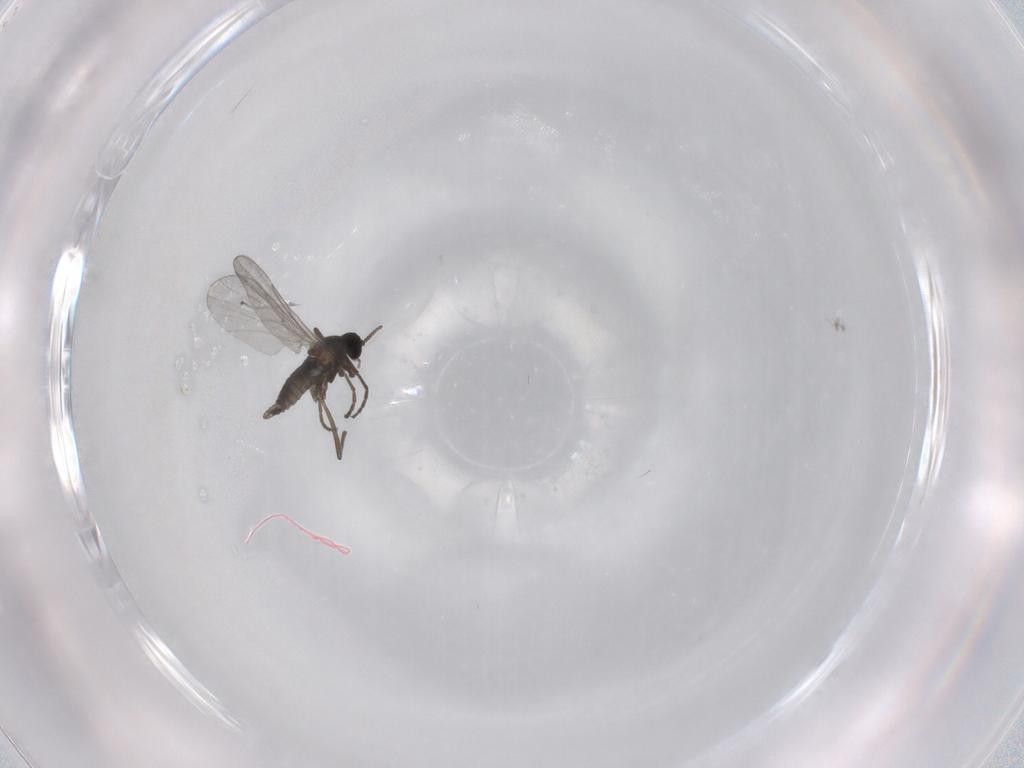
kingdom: Animalia
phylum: Arthropoda
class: Insecta
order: Diptera
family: Cecidomyiidae
